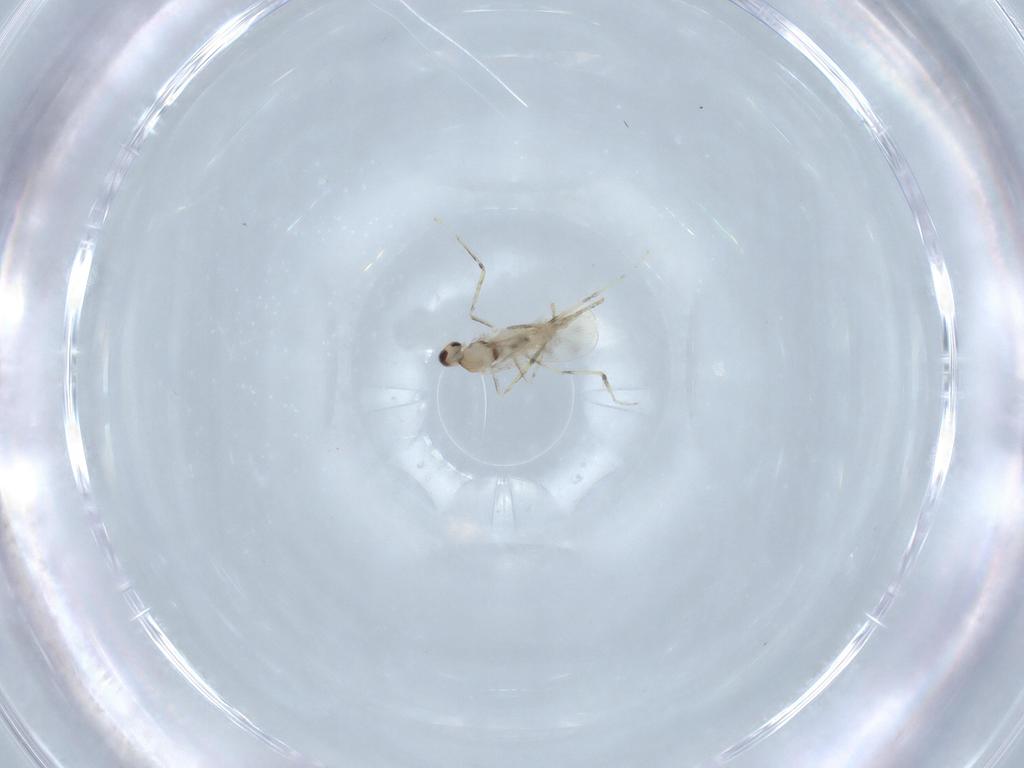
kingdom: Animalia
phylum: Arthropoda
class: Insecta
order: Diptera
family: Cecidomyiidae
